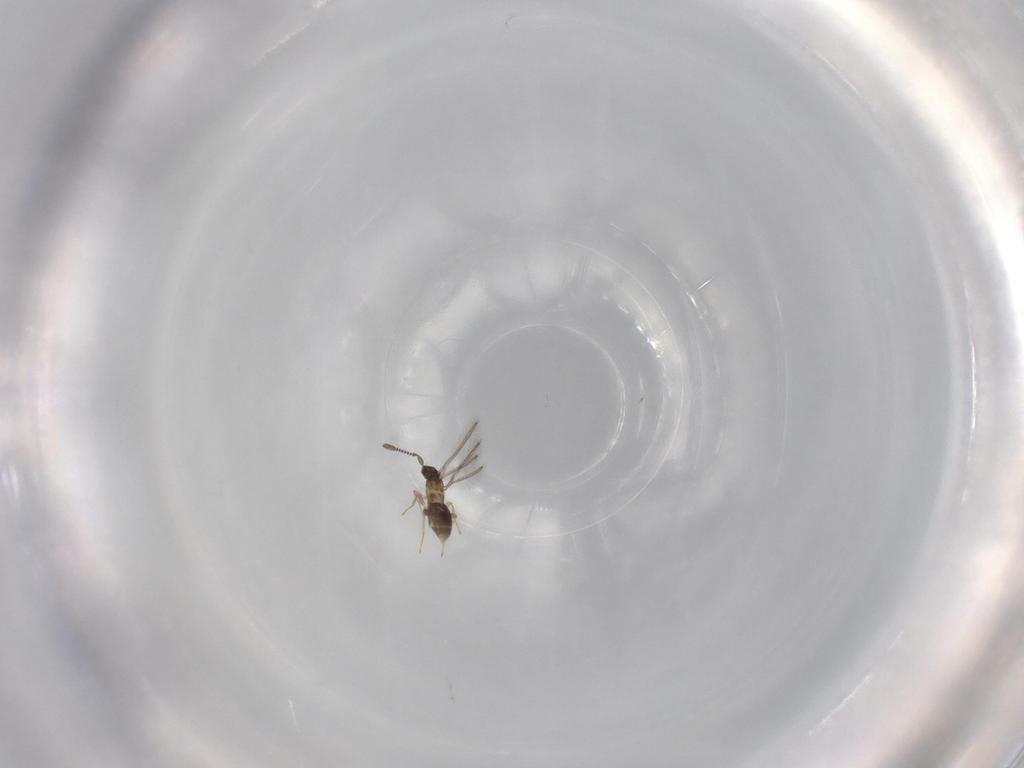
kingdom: Animalia
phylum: Arthropoda
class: Insecta
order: Hymenoptera
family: Mymaridae
